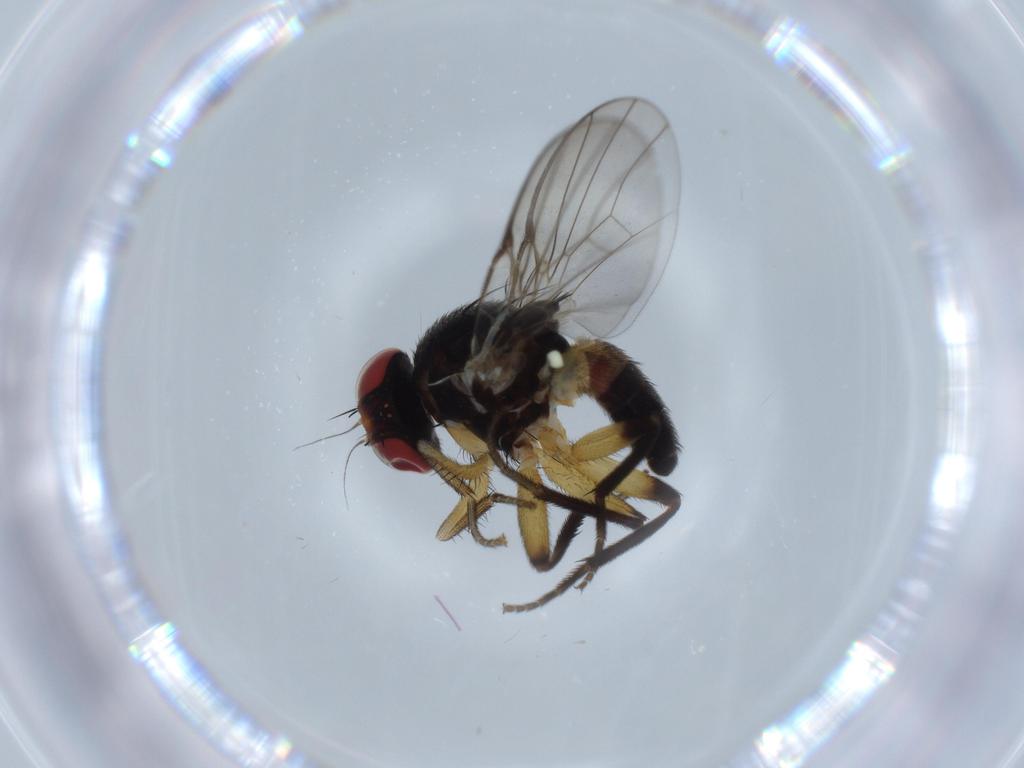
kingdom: Animalia
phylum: Arthropoda
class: Insecta
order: Diptera
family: Agromyzidae
